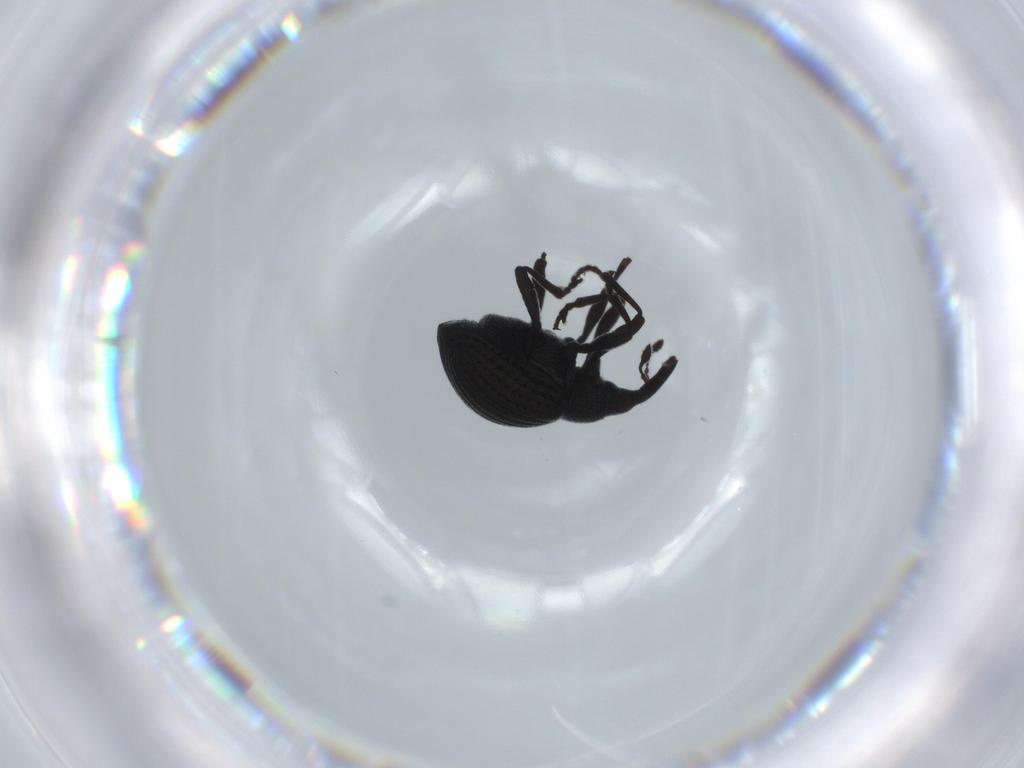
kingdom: Animalia
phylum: Arthropoda
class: Insecta
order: Coleoptera
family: Brentidae
